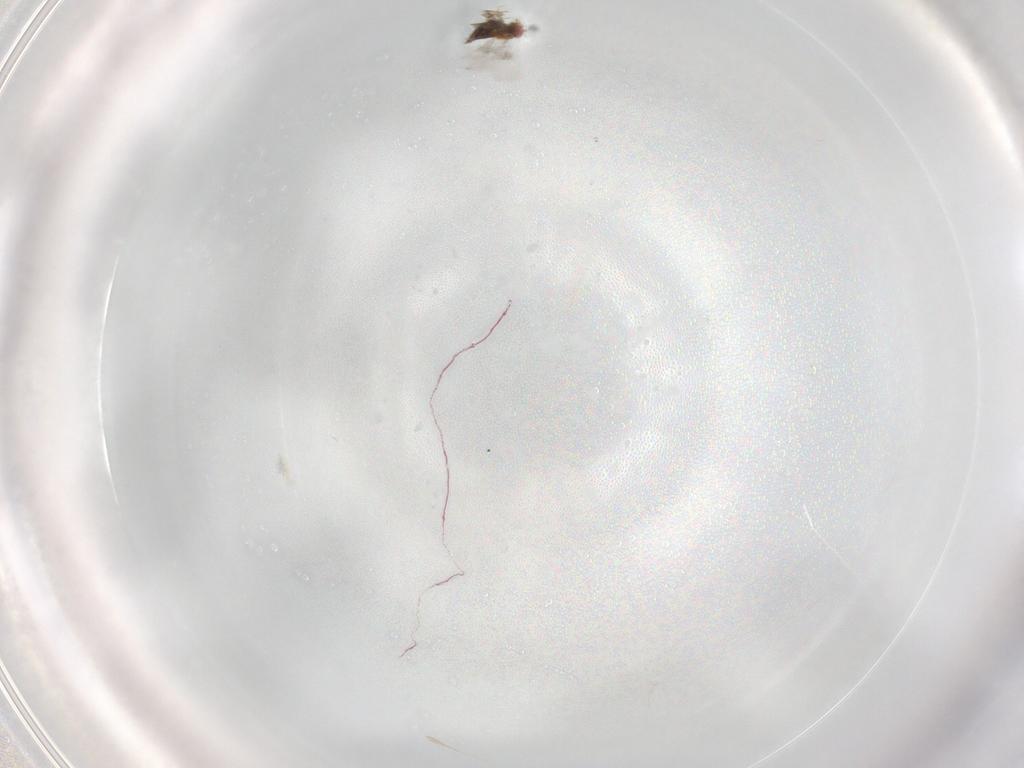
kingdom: Animalia
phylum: Arthropoda
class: Insecta
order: Hymenoptera
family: Trichogrammatidae
